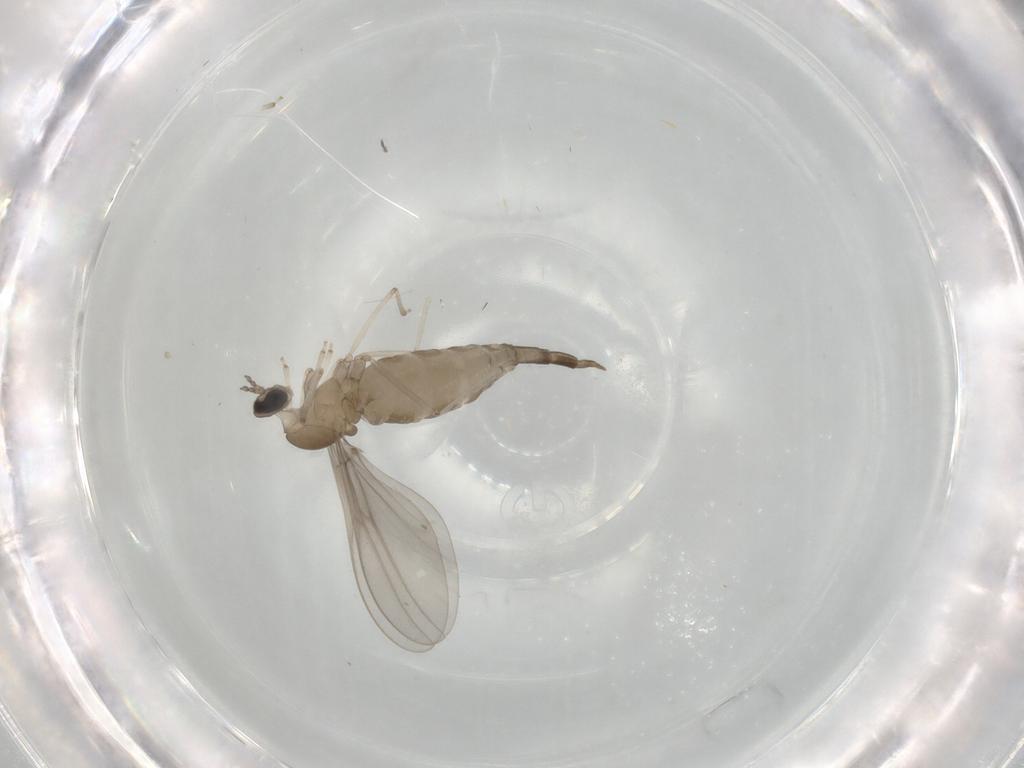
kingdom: Animalia
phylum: Arthropoda
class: Insecta
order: Diptera
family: Cecidomyiidae
